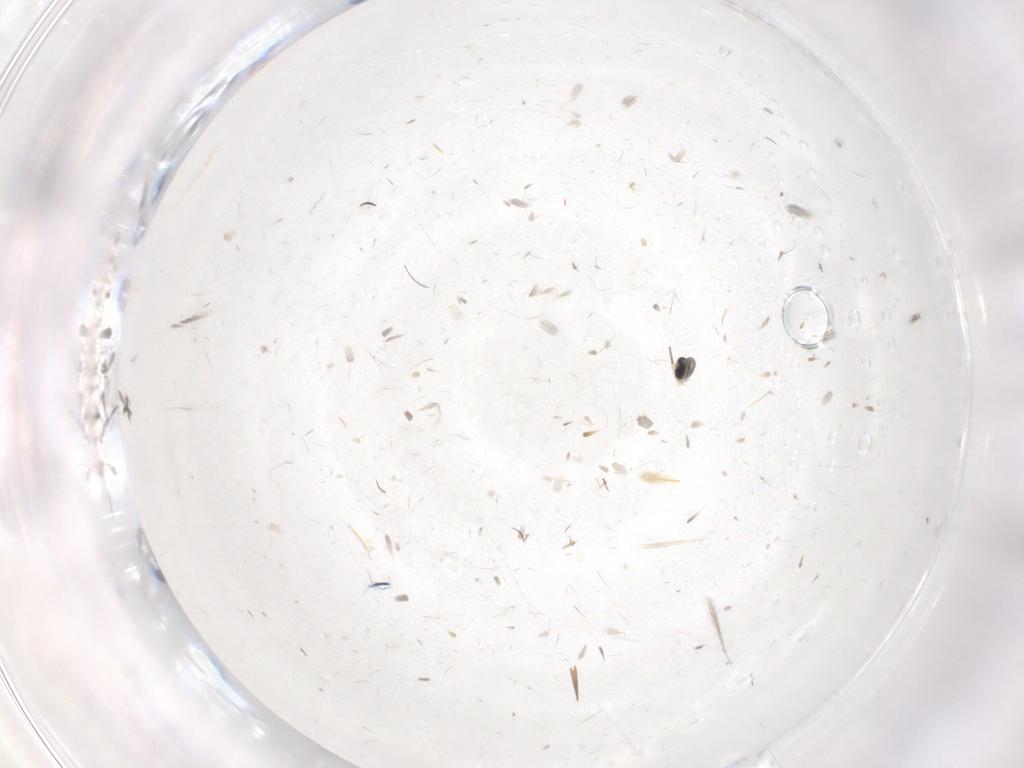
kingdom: Animalia
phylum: Arthropoda
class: Insecta
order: Diptera
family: Cecidomyiidae
